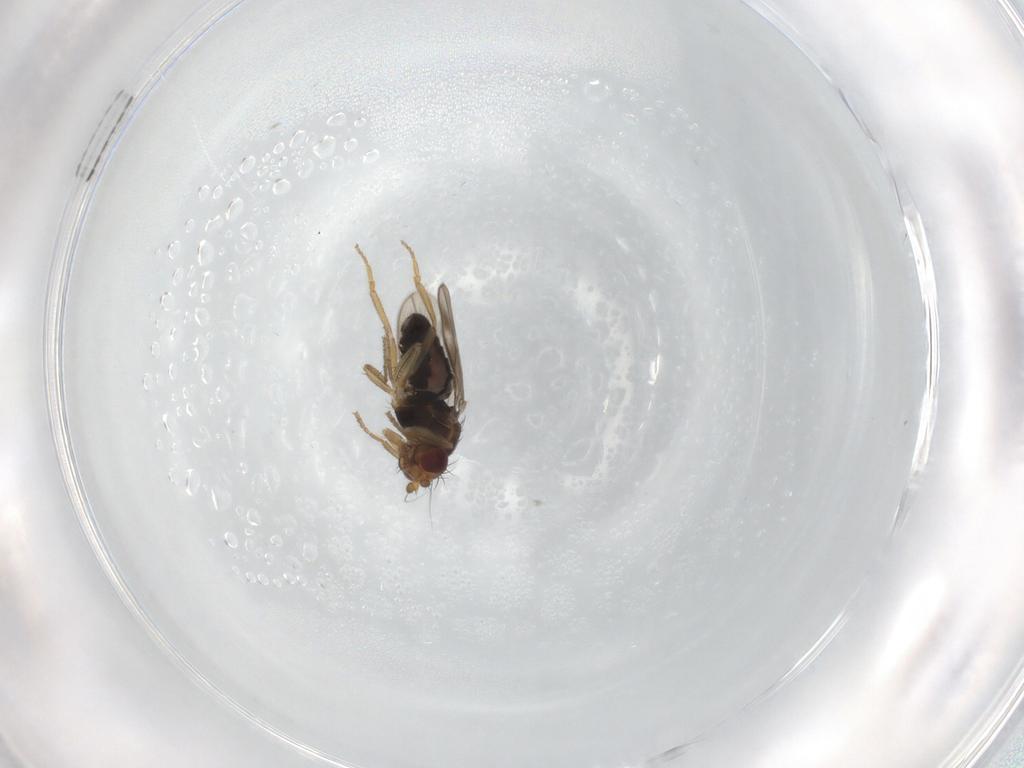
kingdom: Animalia
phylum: Arthropoda
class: Insecta
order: Diptera
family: Sphaeroceridae
